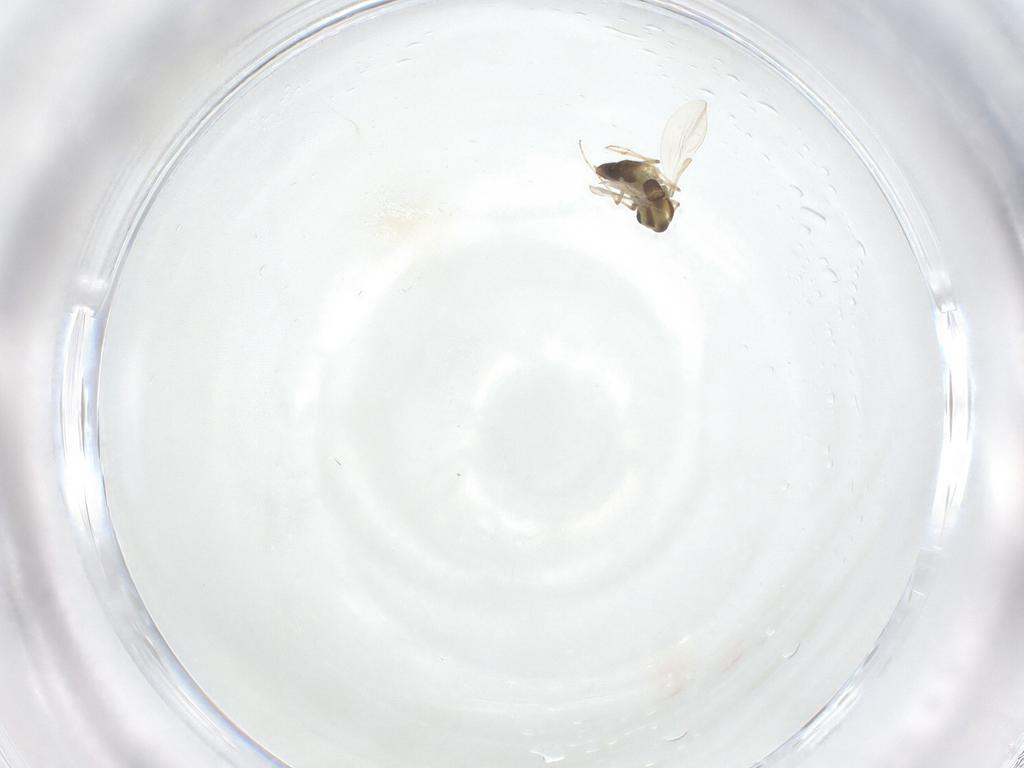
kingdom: Animalia
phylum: Arthropoda
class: Insecta
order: Diptera
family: Chironomidae
